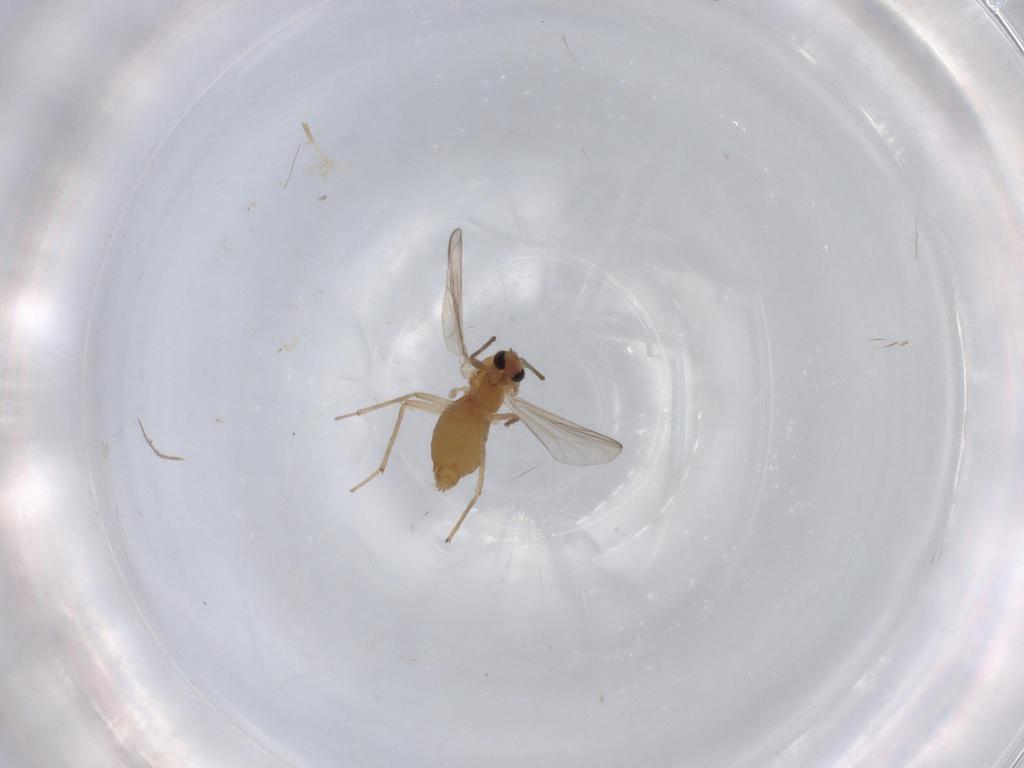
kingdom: Animalia
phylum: Arthropoda
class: Insecta
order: Diptera
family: Chironomidae
